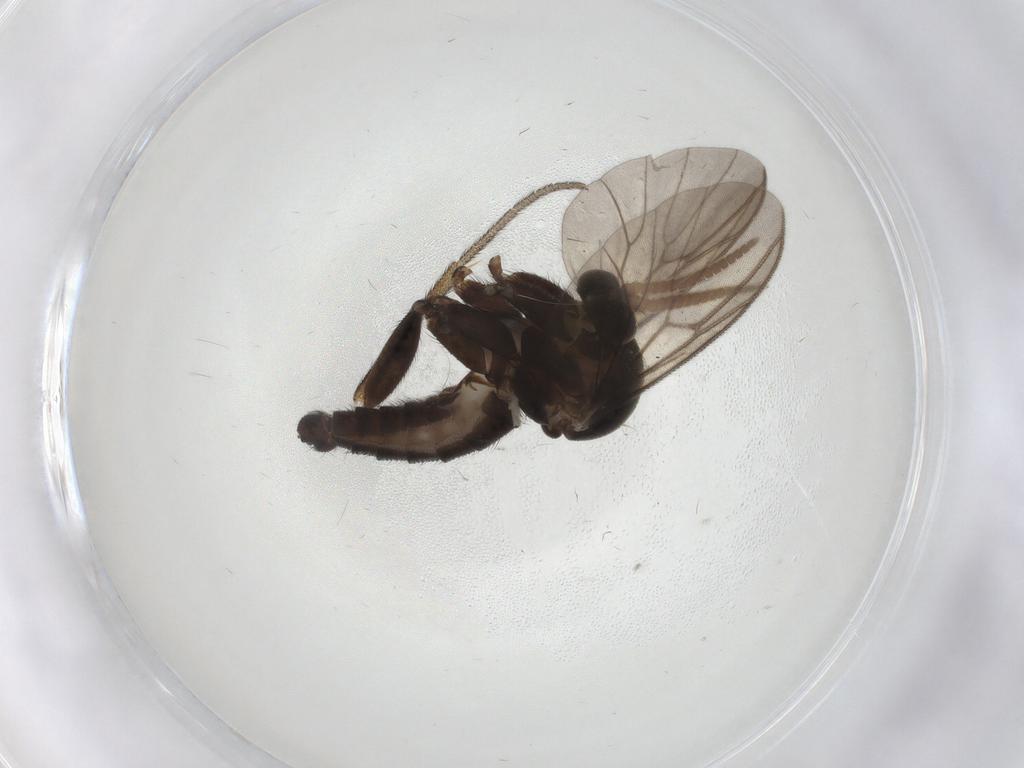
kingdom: Animalia
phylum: Arthropoda
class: Insecta
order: Diptera
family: Chironomidae
